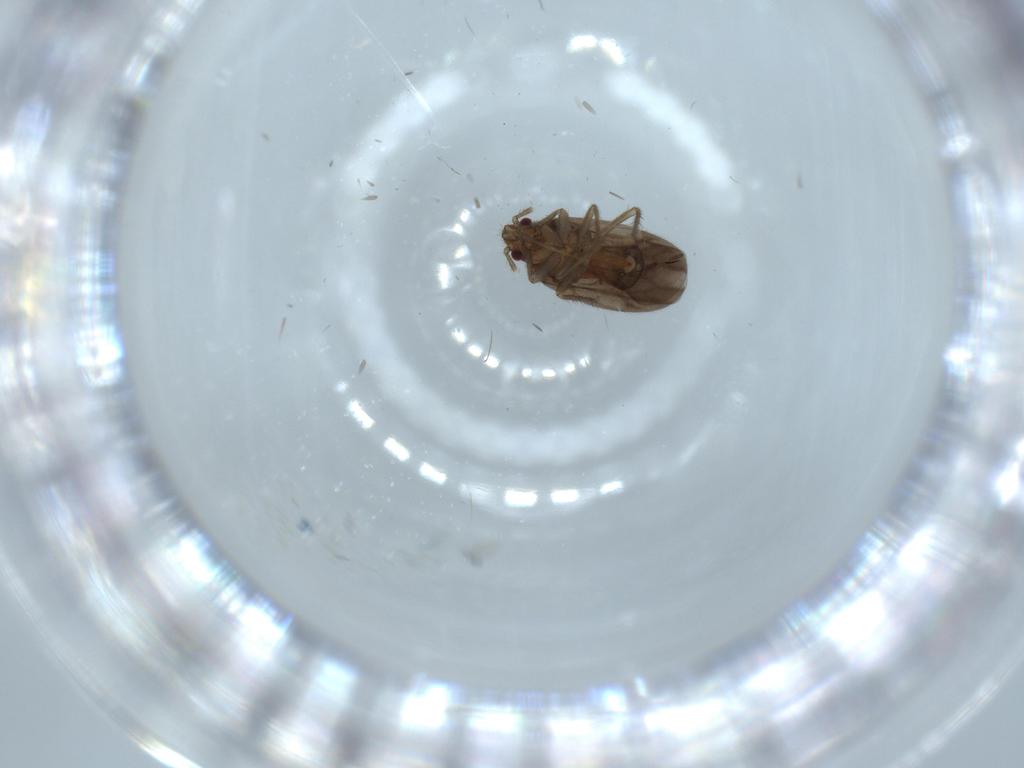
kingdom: Animalia
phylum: Arthropoda
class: Insecta
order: Hemiptera
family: Ceratocombidae
